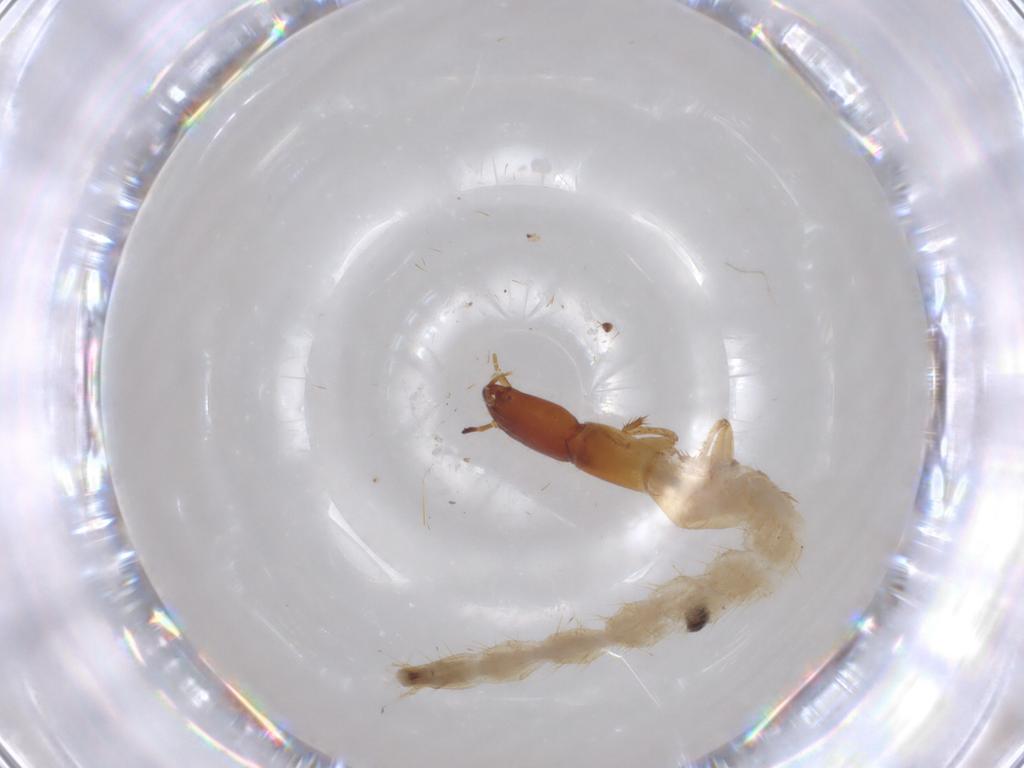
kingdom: Animalia
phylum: Arthropoda
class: Insecta
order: Coleoptera
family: Staphylinidae
